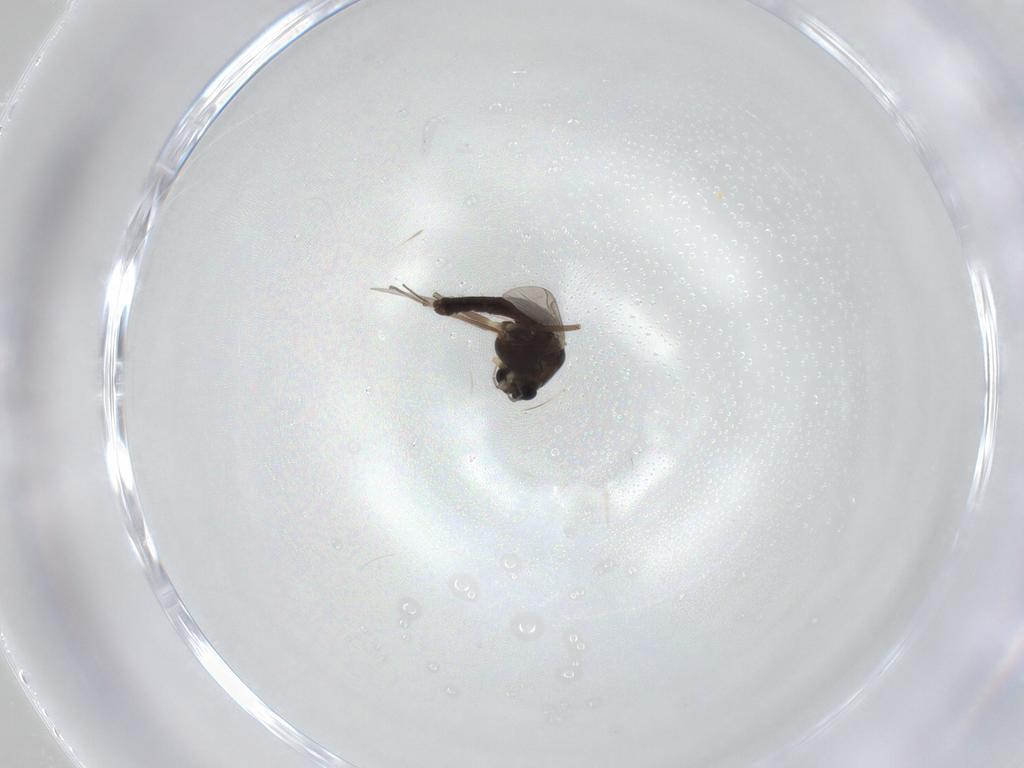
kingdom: Animalia
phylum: Arthropoda
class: Insecta
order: Diptera
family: Chironomidae
